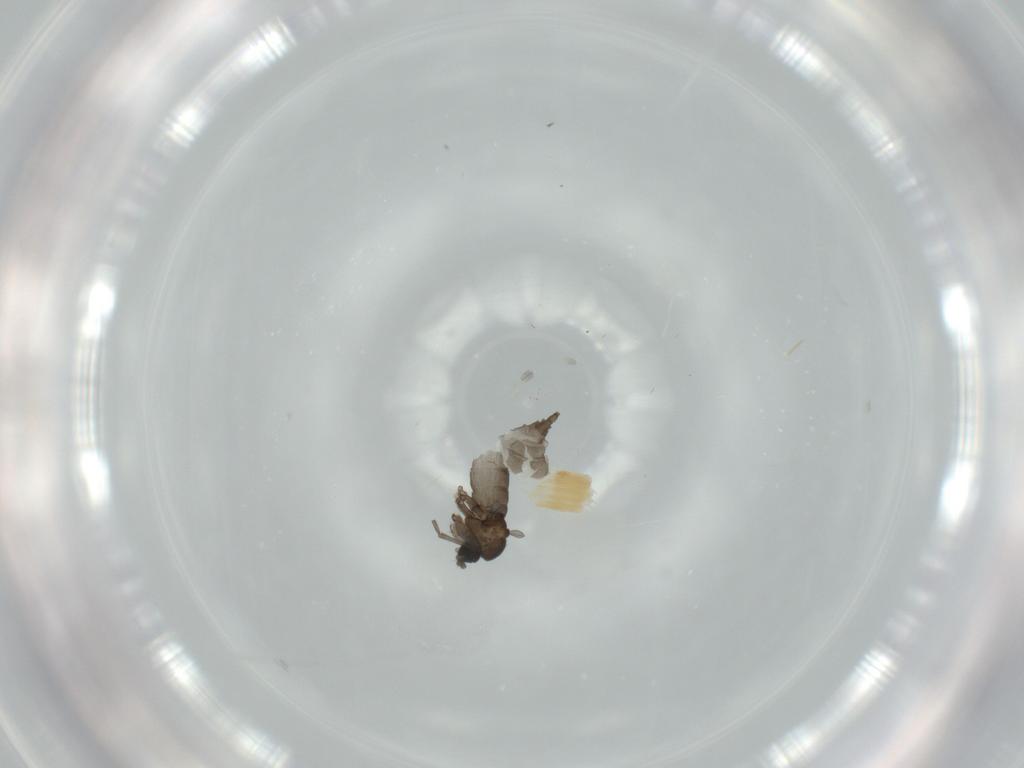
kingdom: Animalia
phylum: Arthropoda
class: Insecta
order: Diptera
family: Sciaridae
